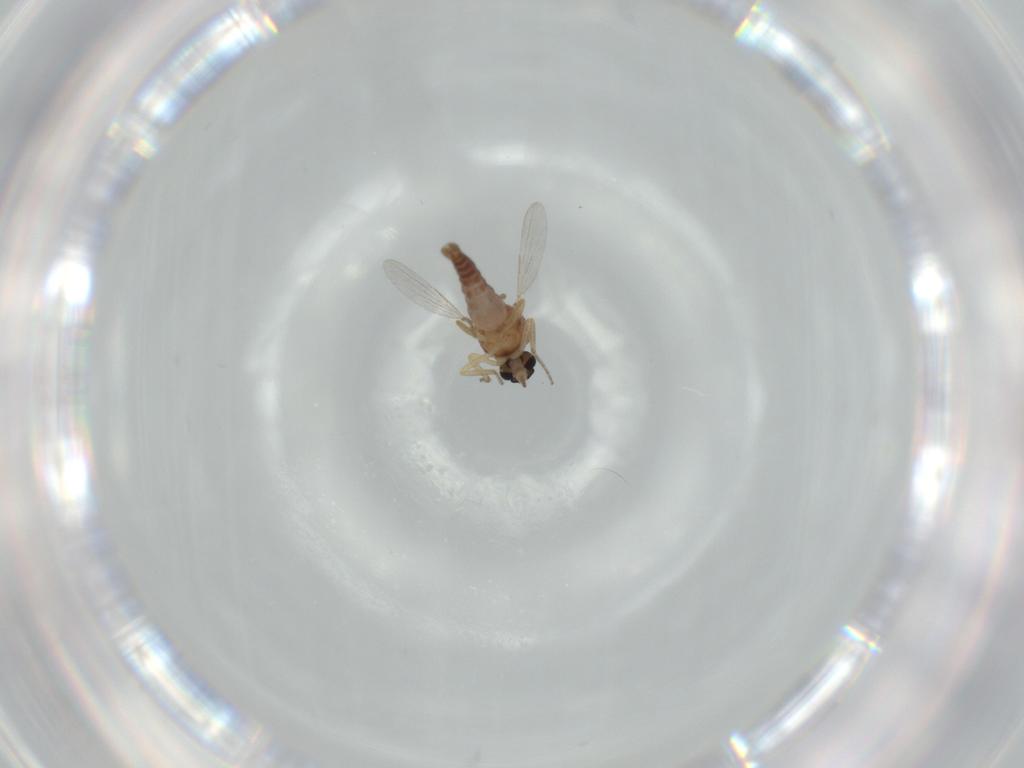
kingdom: Animalia
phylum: Arthropoda
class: Insecta
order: Diptera
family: Ceratopogonidae
